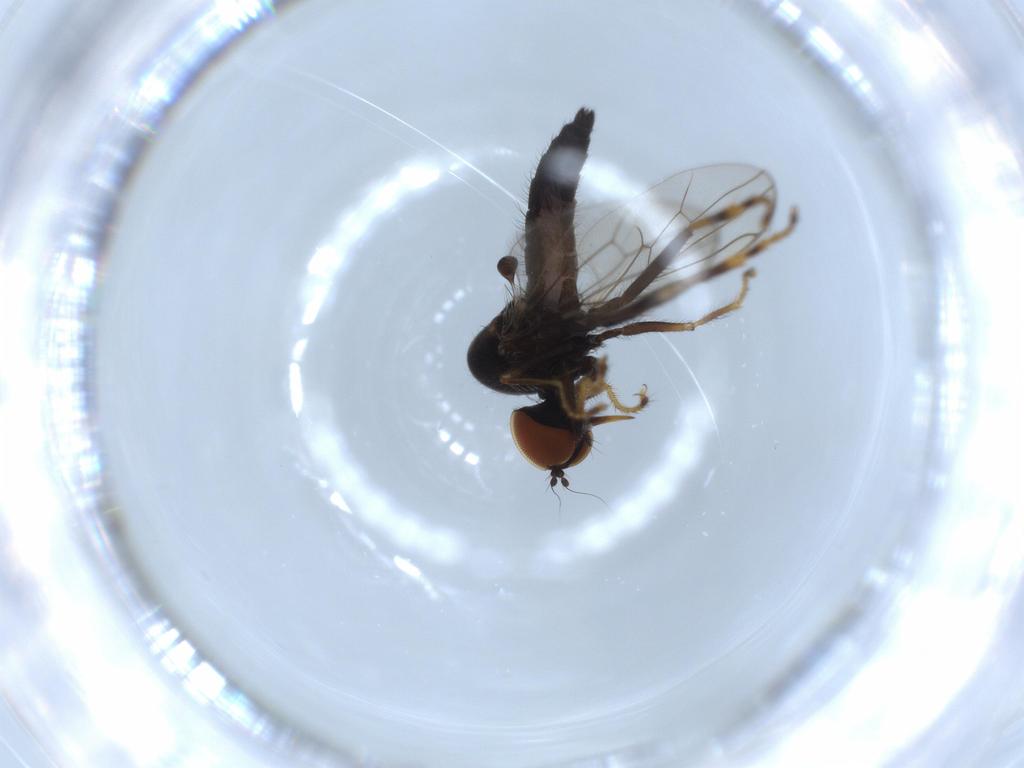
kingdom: Animalia
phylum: Arthropoda
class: Insecta
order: Diptera
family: Hybotidae
